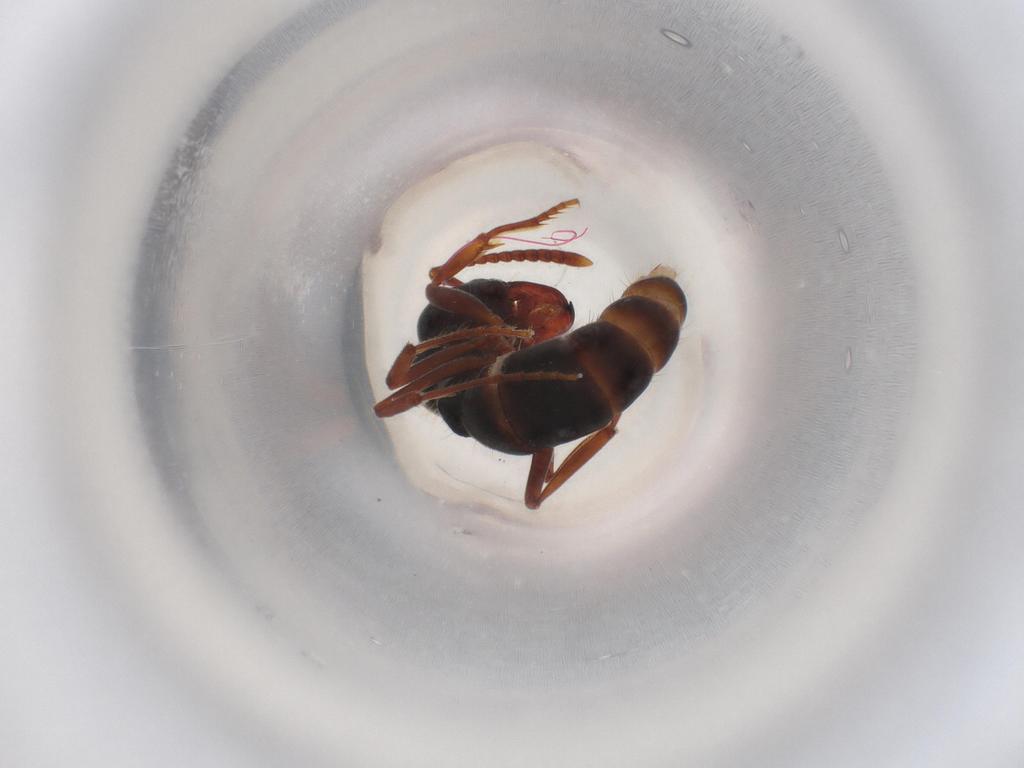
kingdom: Animalia
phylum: Arthropoda
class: Insecta
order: Hymenoptera
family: Formicidae
